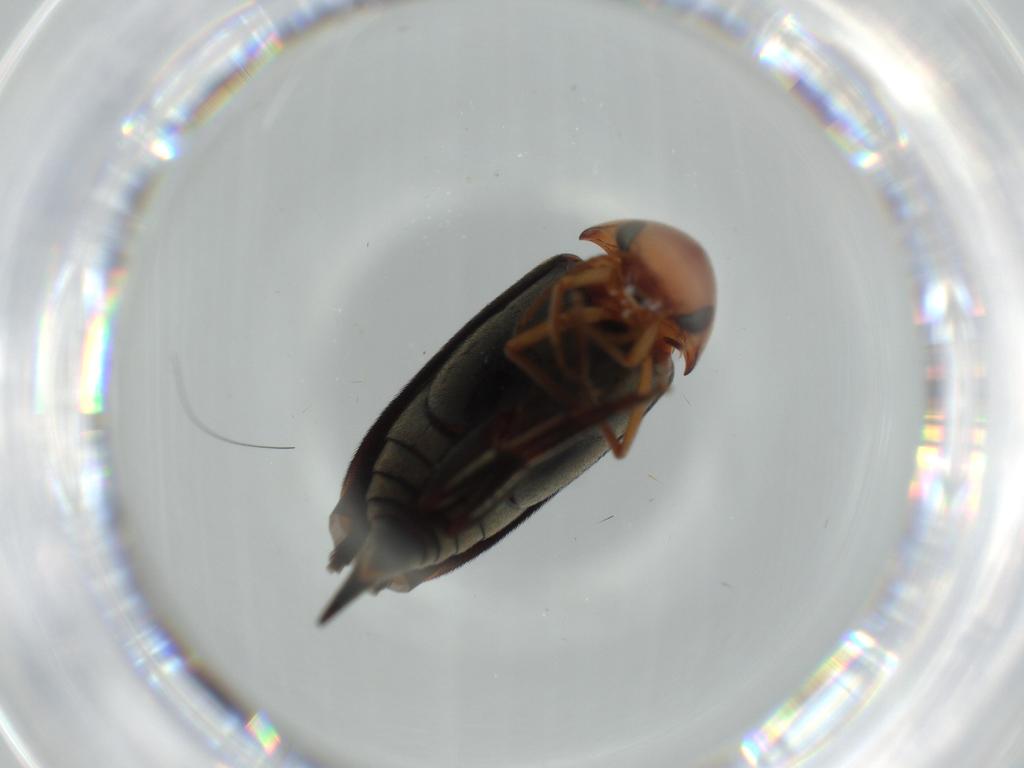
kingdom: Animalia
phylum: Arthropoda
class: Insecta
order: Coleoptera
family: Mordellidae
